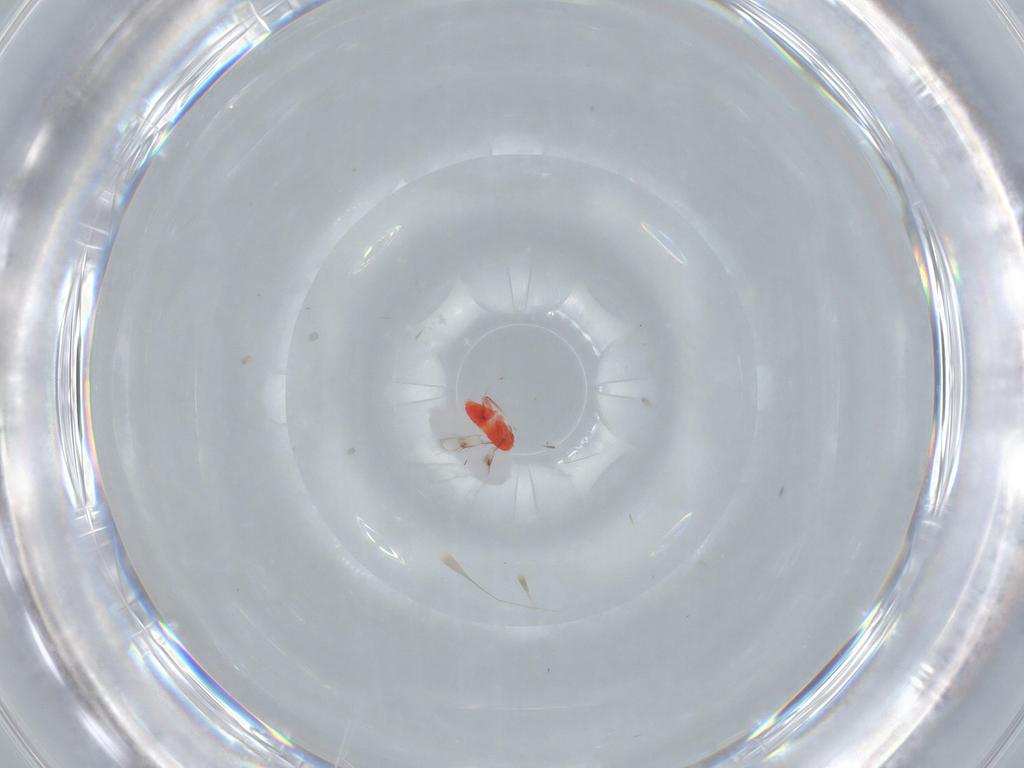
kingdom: Animalia
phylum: Arthropoda
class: Insecta
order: Hymenoptera
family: Trichogrammatidae
